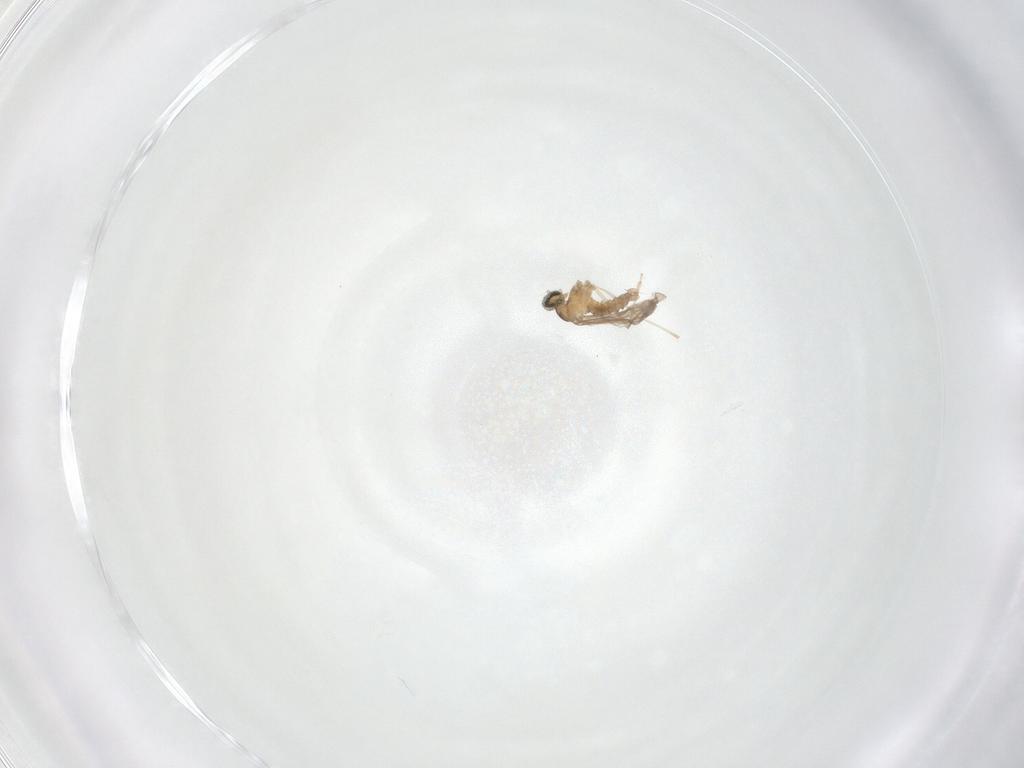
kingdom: Animalia
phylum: Arthropoda
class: Insecta
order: Diptera
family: Cecidomyiidae
